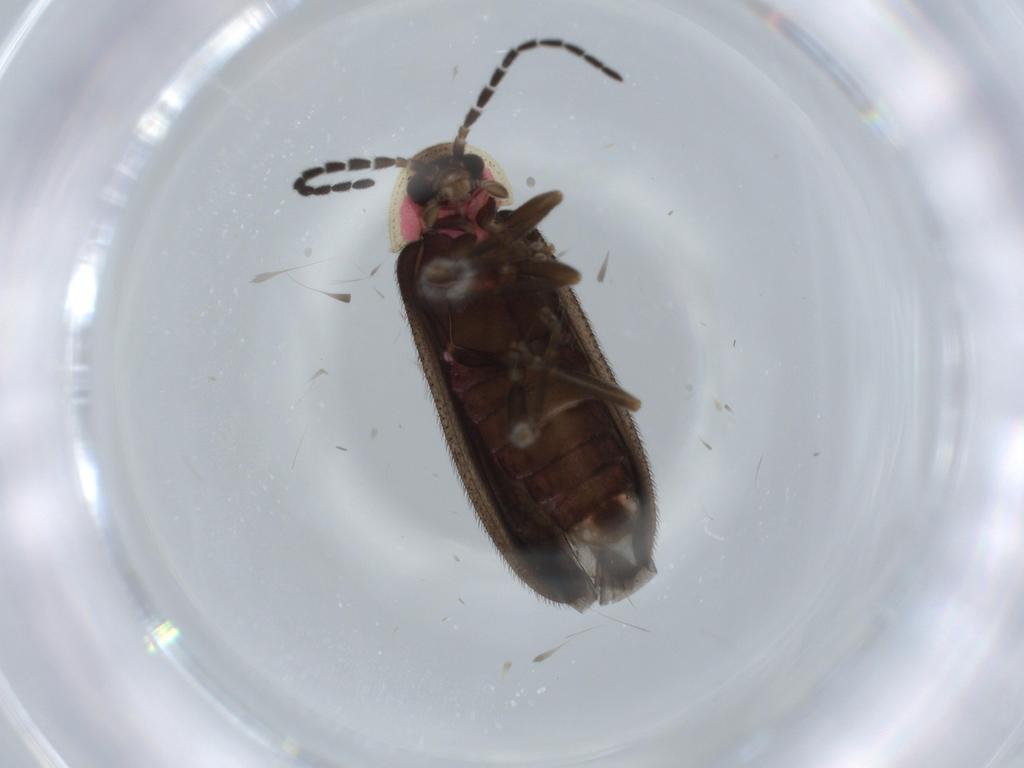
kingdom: Animalia
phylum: Arthropoda
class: Insecta
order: Coleoptera
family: Lampyridae
